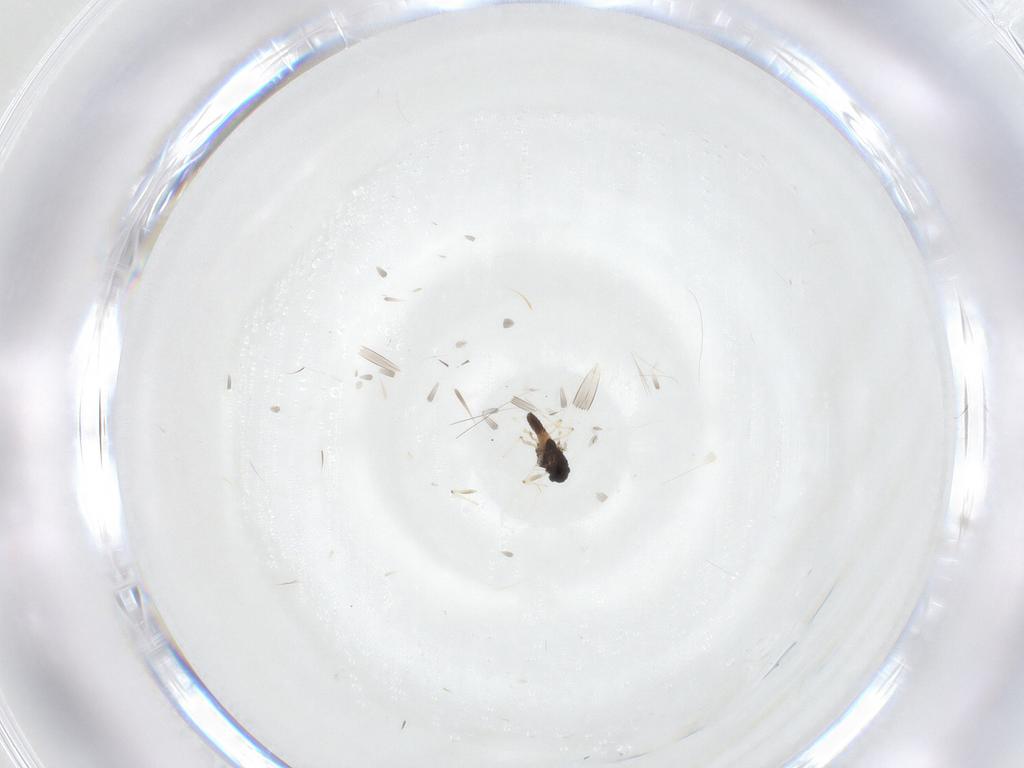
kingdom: Animalia
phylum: Arthropoda
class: Insecta
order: Diptera
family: Chironomidae
